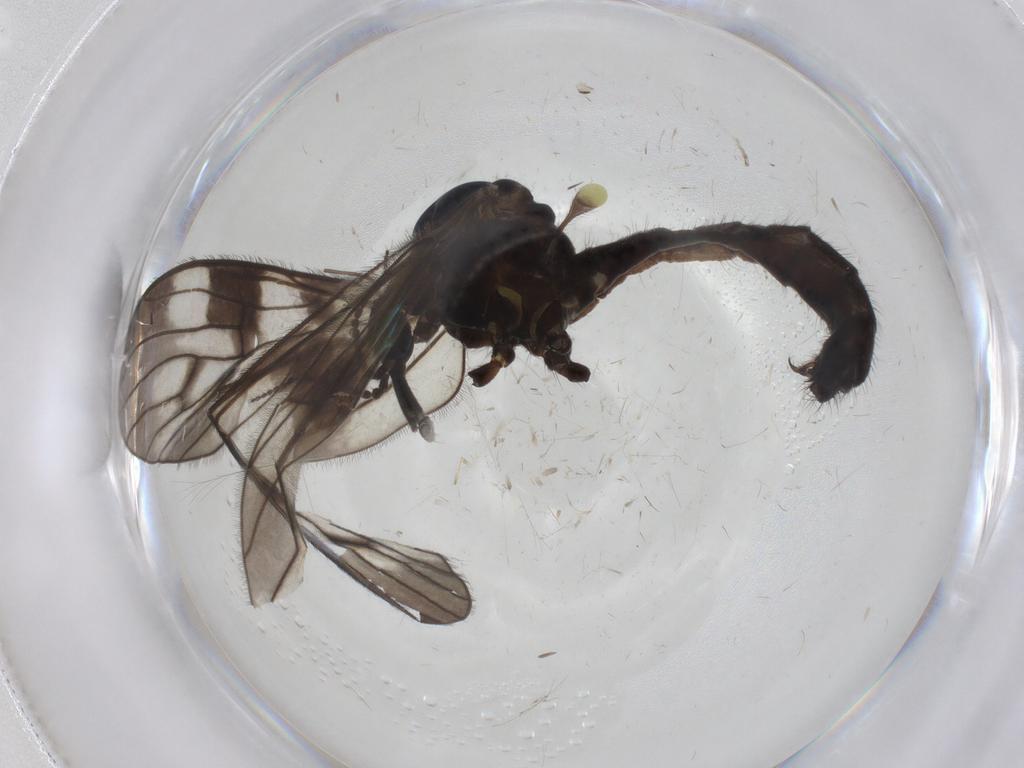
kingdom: Animalia
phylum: Arthropoda
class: Insecta
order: Diptera
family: Limoniidae
